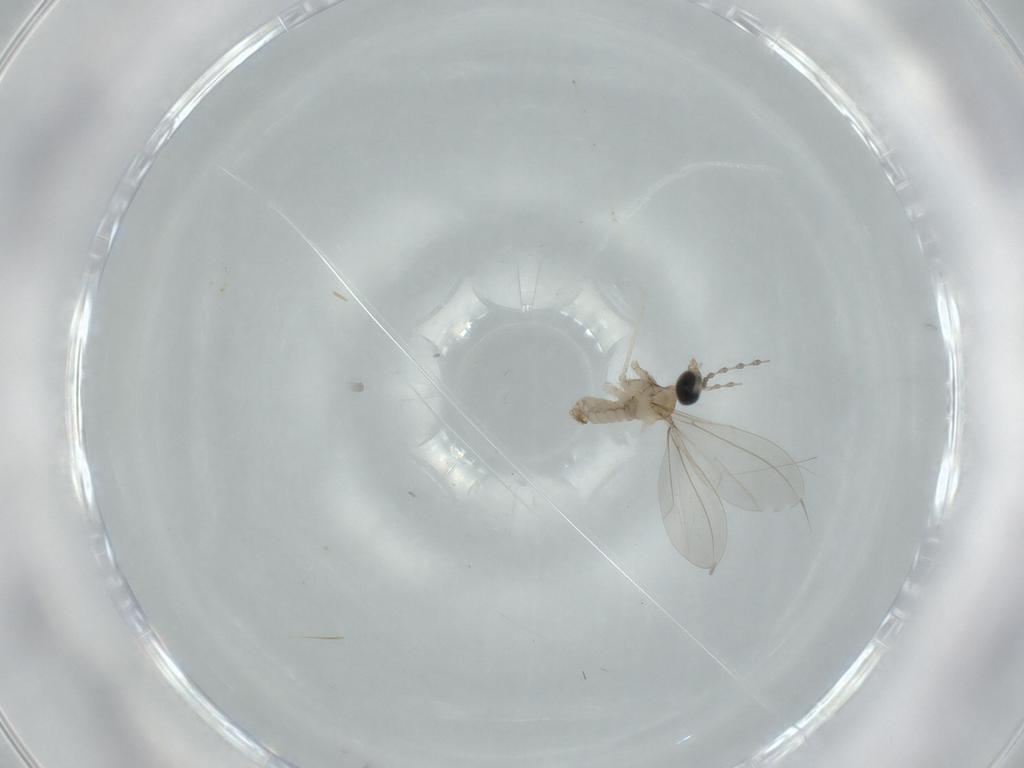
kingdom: Animalia
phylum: Arthropoda
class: Insecta
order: Diptera
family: Cecidomyiidae
